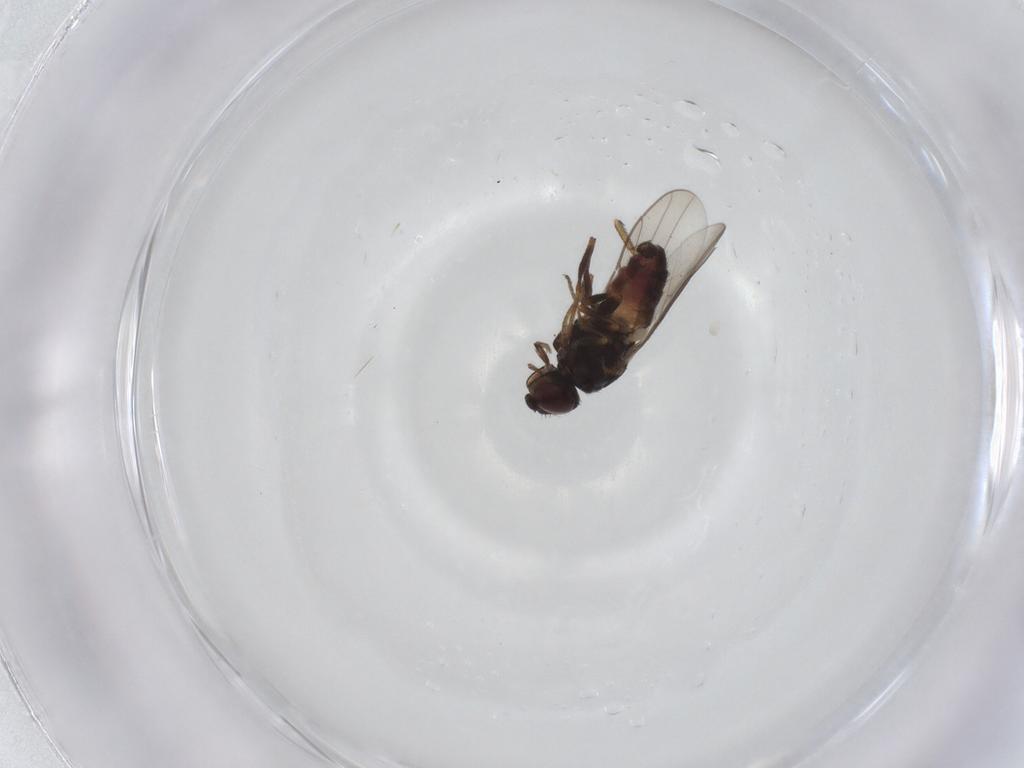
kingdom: Animalia
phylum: Arthropoda
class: Insecta
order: Diptera
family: Chloropidae
